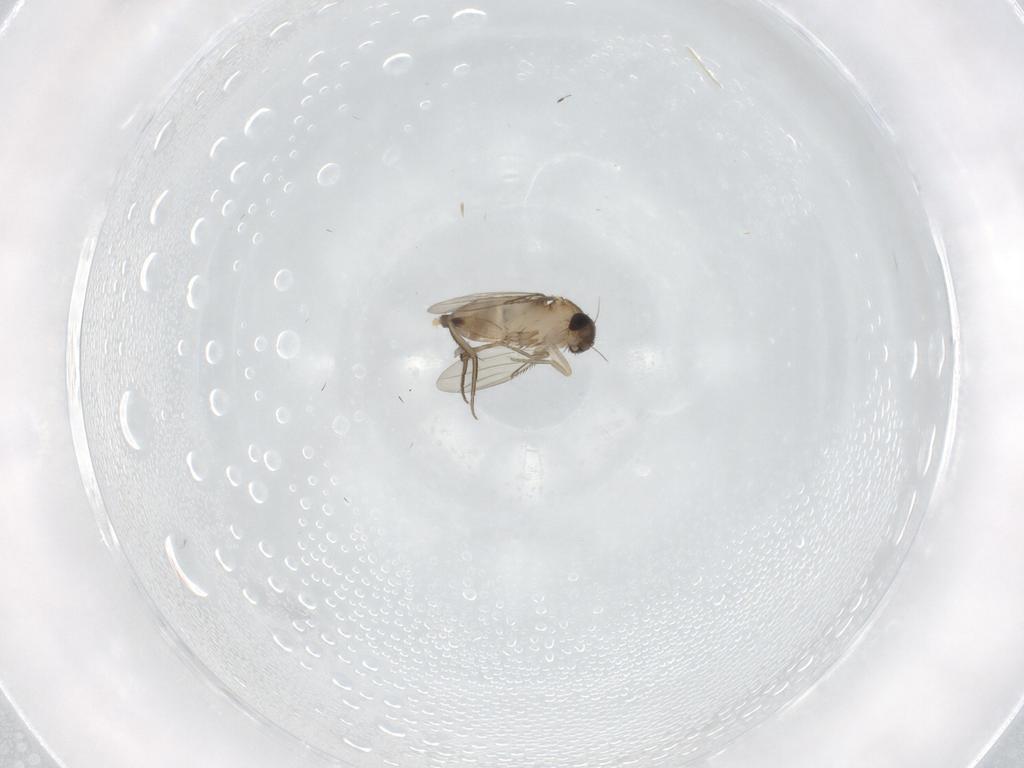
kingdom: Animalia
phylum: Arthropoda
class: Insecta
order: Diptera
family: Phoridae
